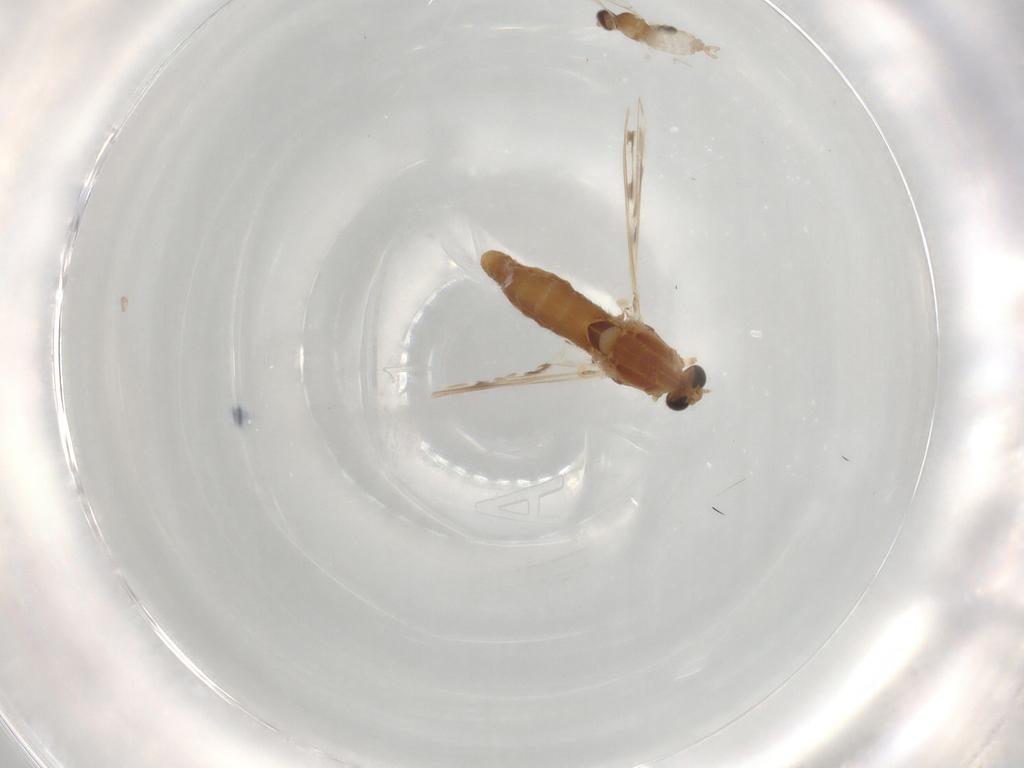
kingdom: Animalia
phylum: Arthropoda
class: Insecta
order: Diptera
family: Chironomidae
